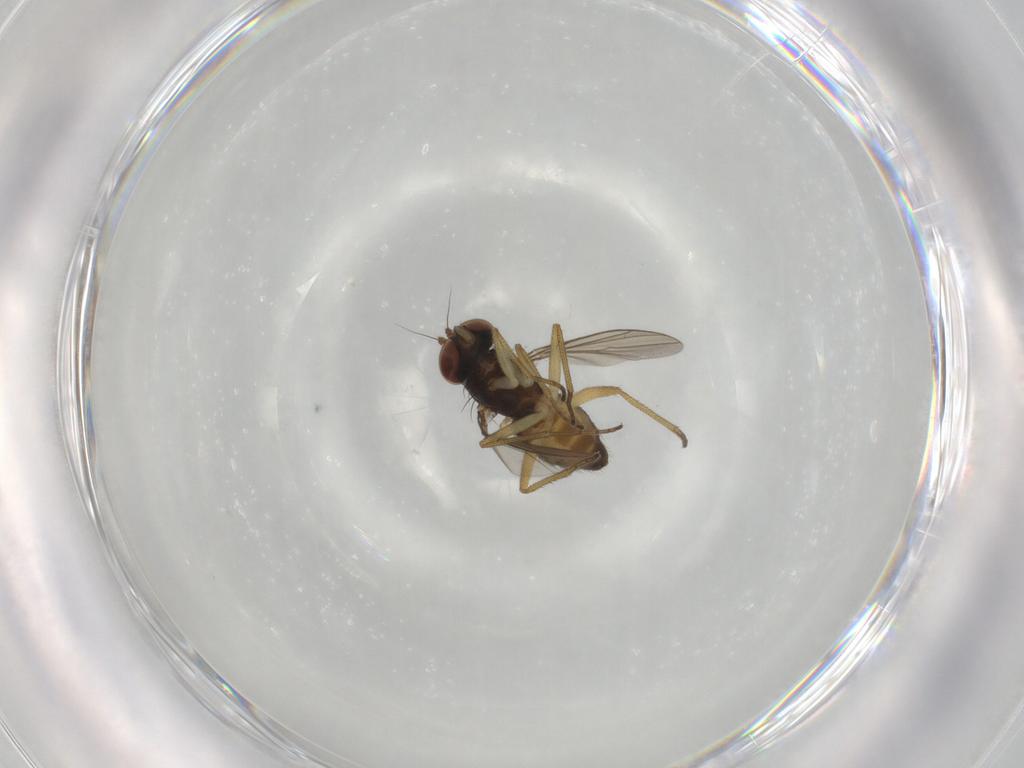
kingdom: Animalia
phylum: Arthropoda
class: Insecta
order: Diptera
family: Dolichopodidae
